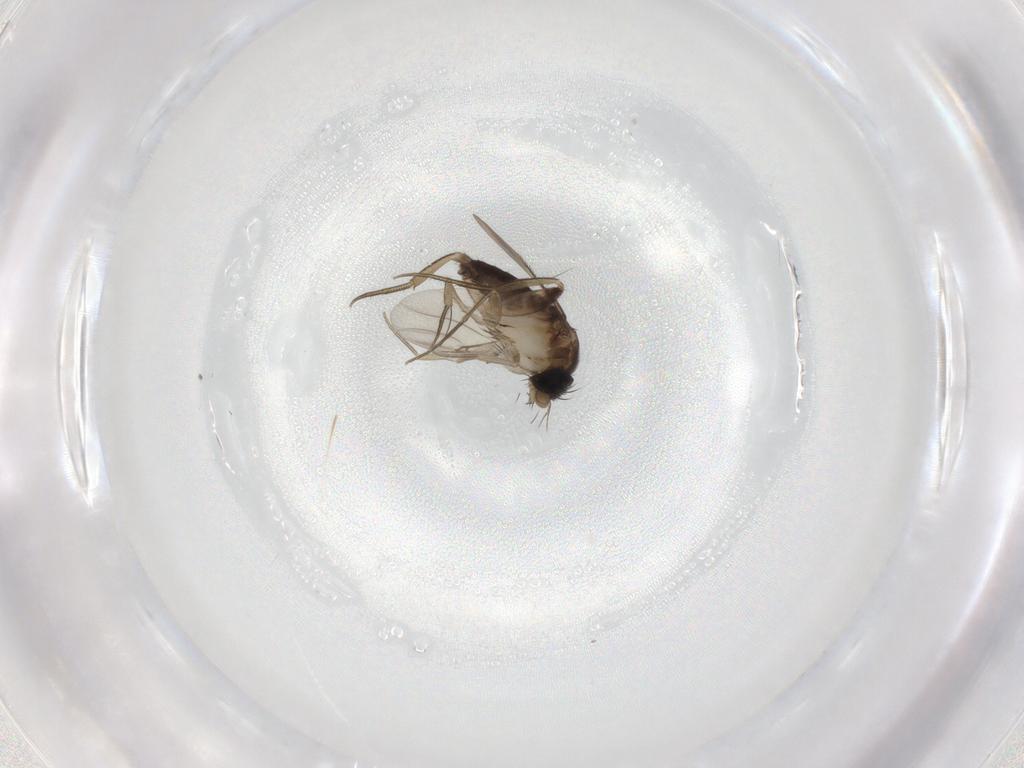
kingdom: Animalia
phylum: Arthropoda
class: Insecta
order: Diptera
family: Phoridae
